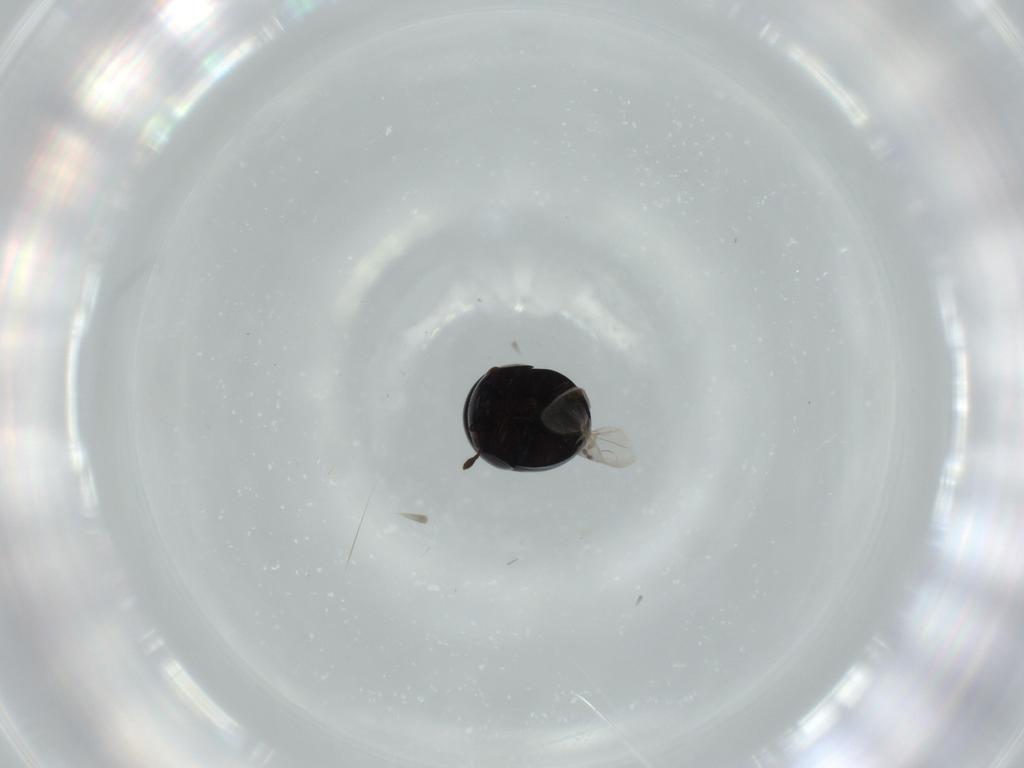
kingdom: Animalia
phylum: Arthropoda
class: Insecta
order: Coleoptera
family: Cybocephalidae
